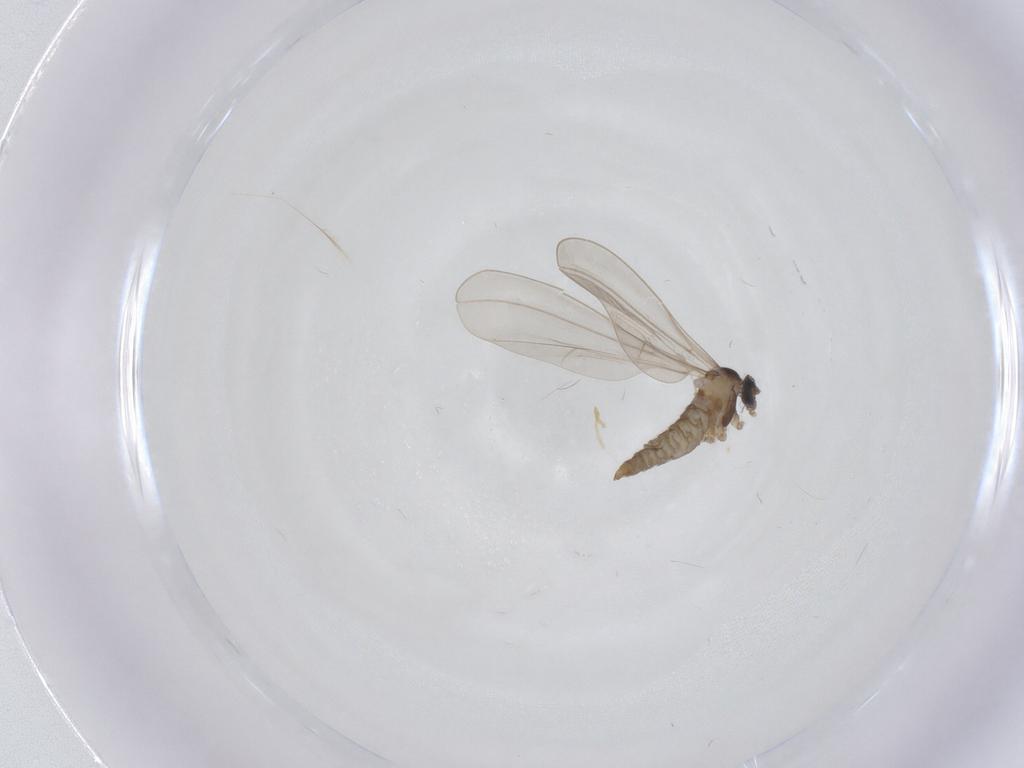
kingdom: Animalia
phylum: Arthropoda
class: Insecta
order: Diptera
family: Cecidomyiidae
